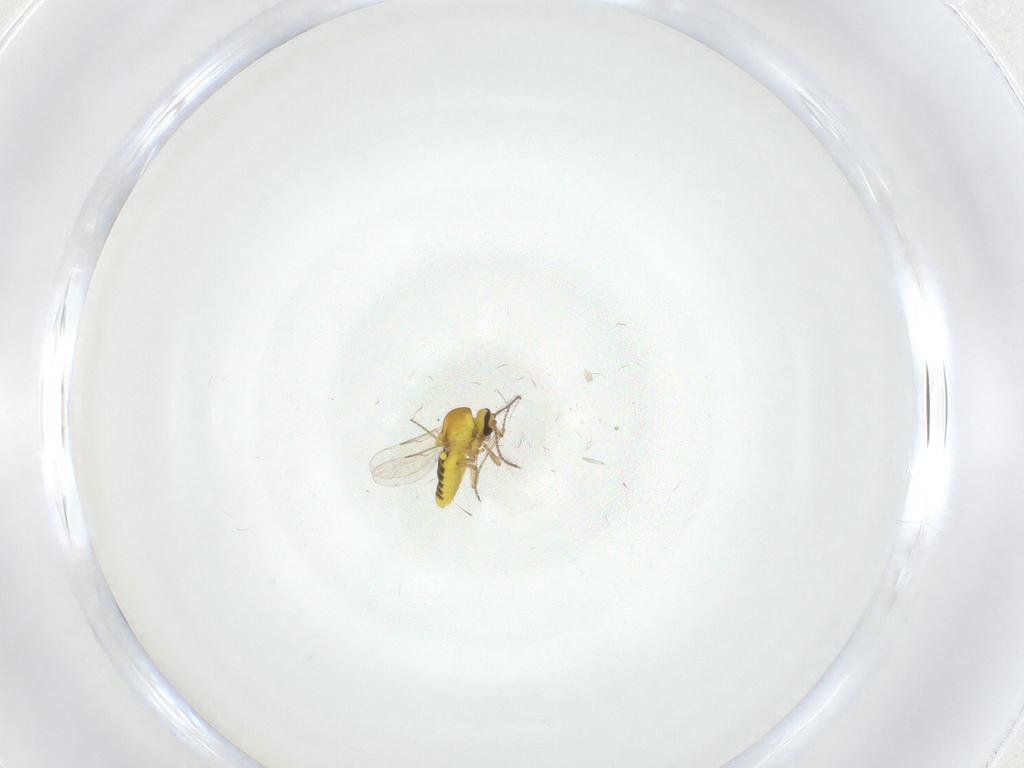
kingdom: Animalia
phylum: Arthropoda
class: Insecta
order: Diptera
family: Ceratopogonidae
